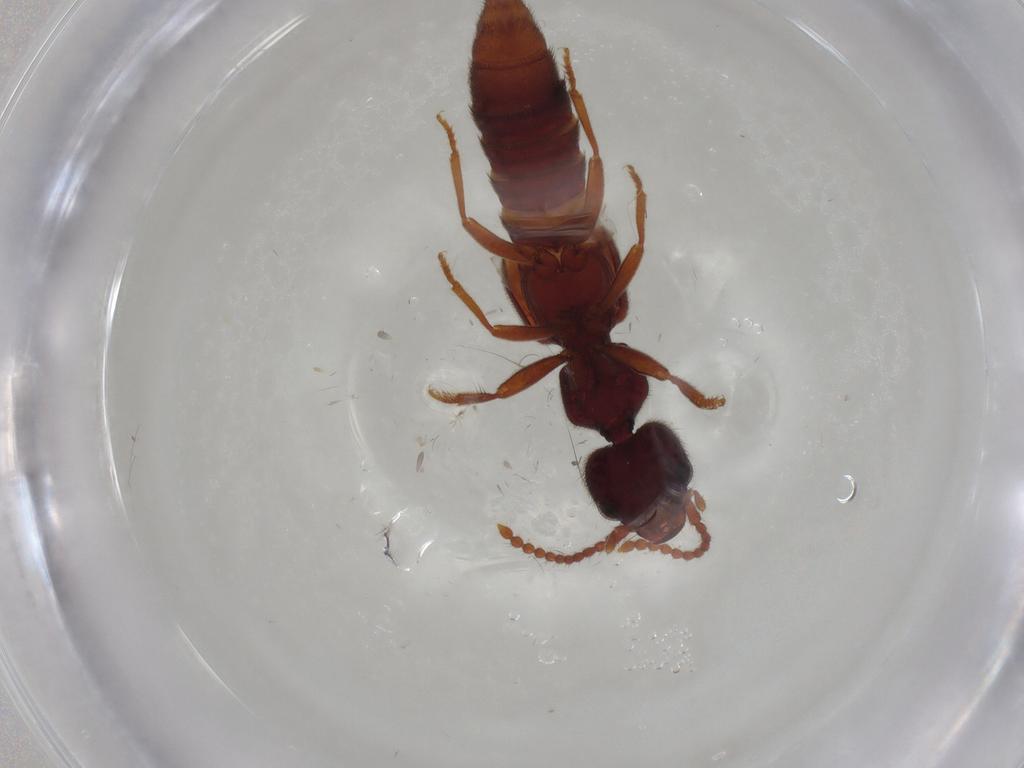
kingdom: Animalia
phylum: Arthropoda
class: Insecta
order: Coleoptera
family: Staphylinidae
